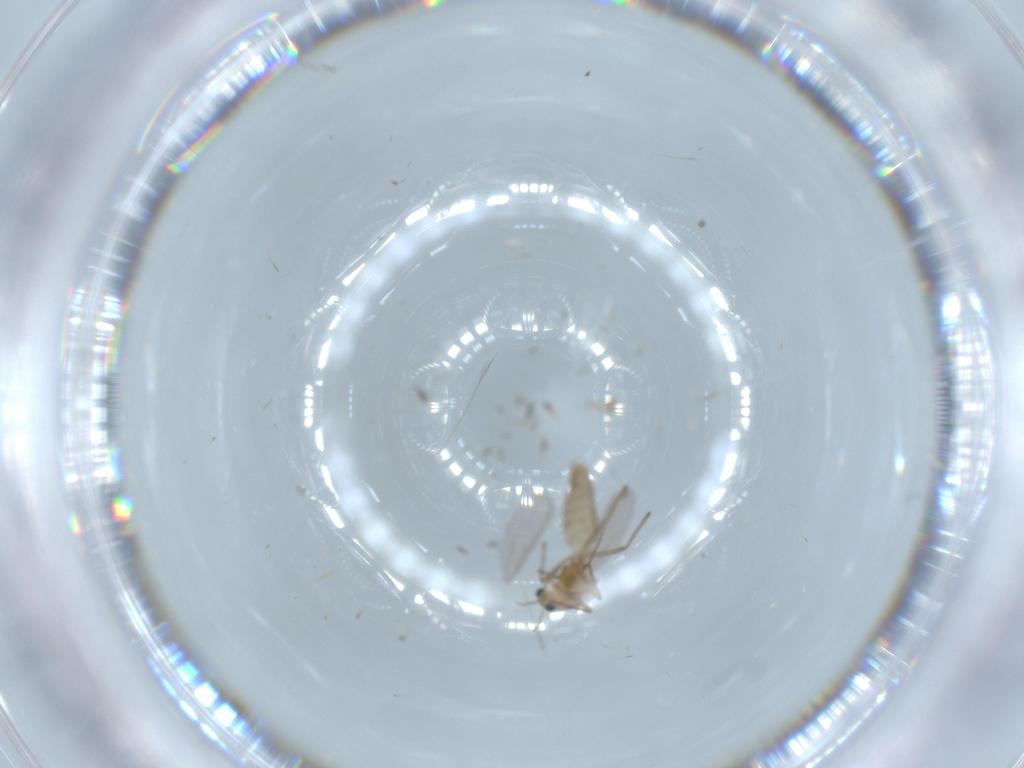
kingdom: Animalia
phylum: Arthropoda
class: Insecta
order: Diptera
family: Chironomidae
